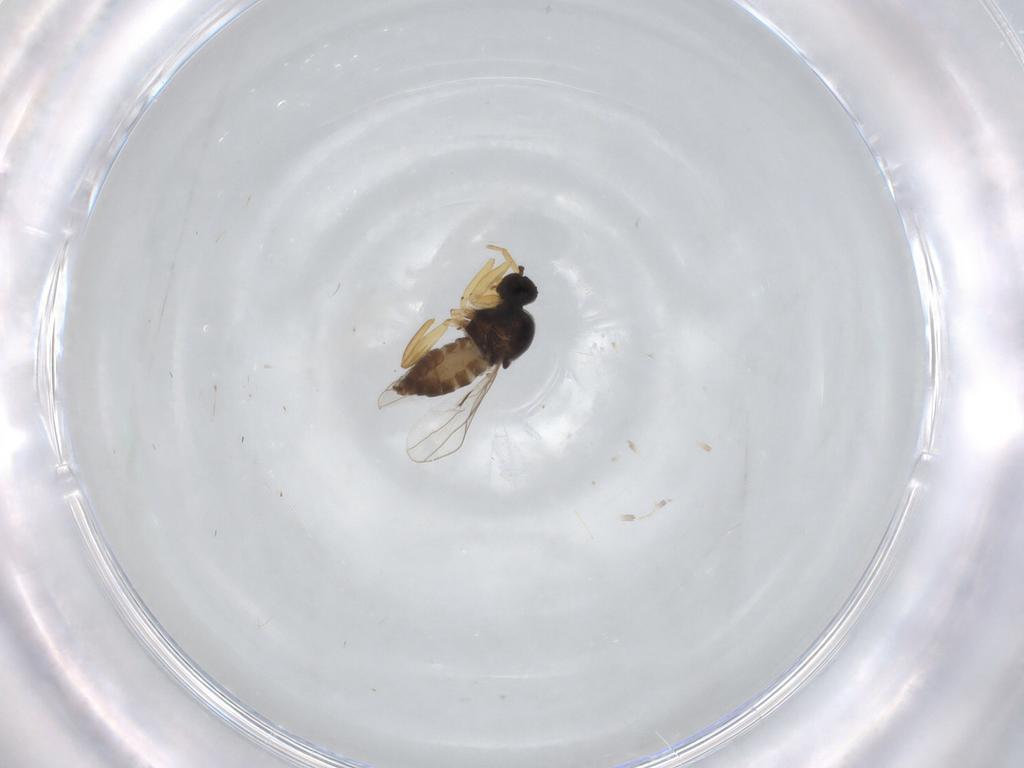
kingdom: Animalia
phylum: Arthropoda
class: Insecta
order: Diptera
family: Hybotidae
